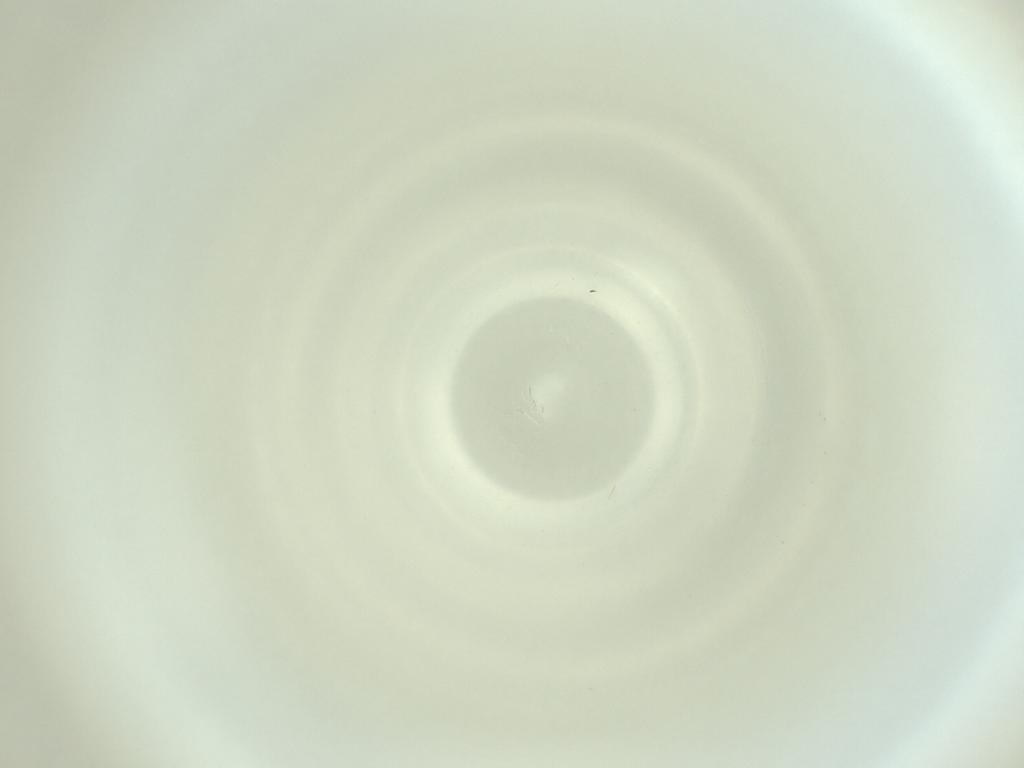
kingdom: Animalia
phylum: Arthropoda
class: Insecta
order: Diptera
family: Cecidomyiidae
